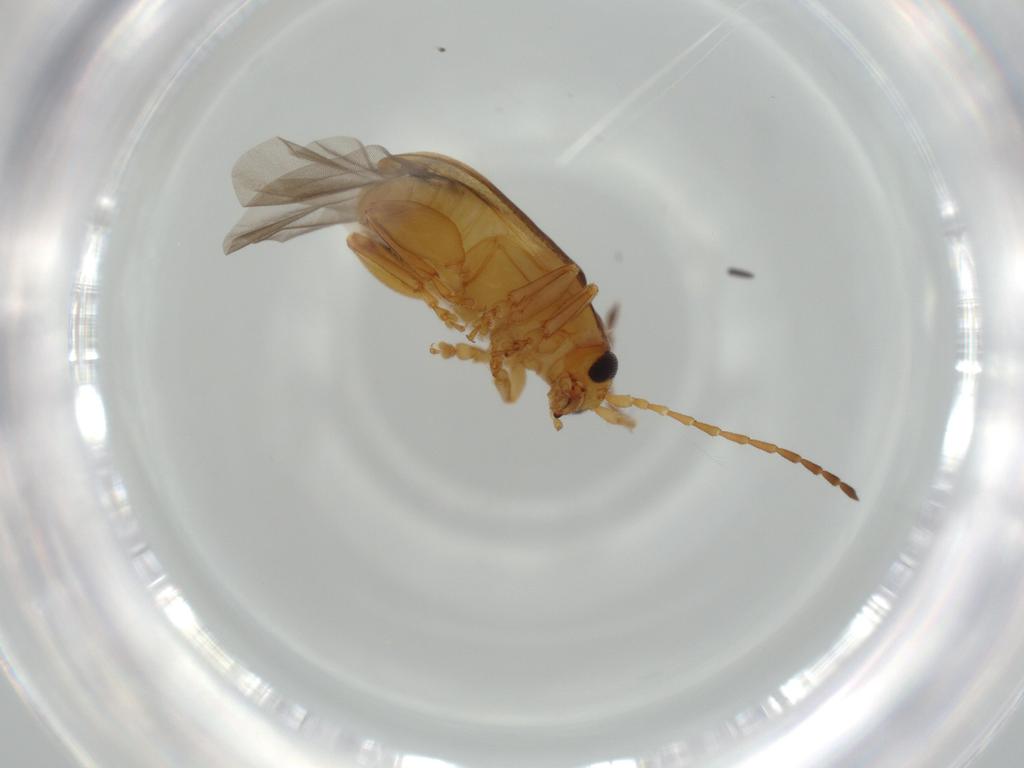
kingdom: Animalia
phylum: Arthropoda
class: Insecta
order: Coleoptera
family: Chrysomelidae
